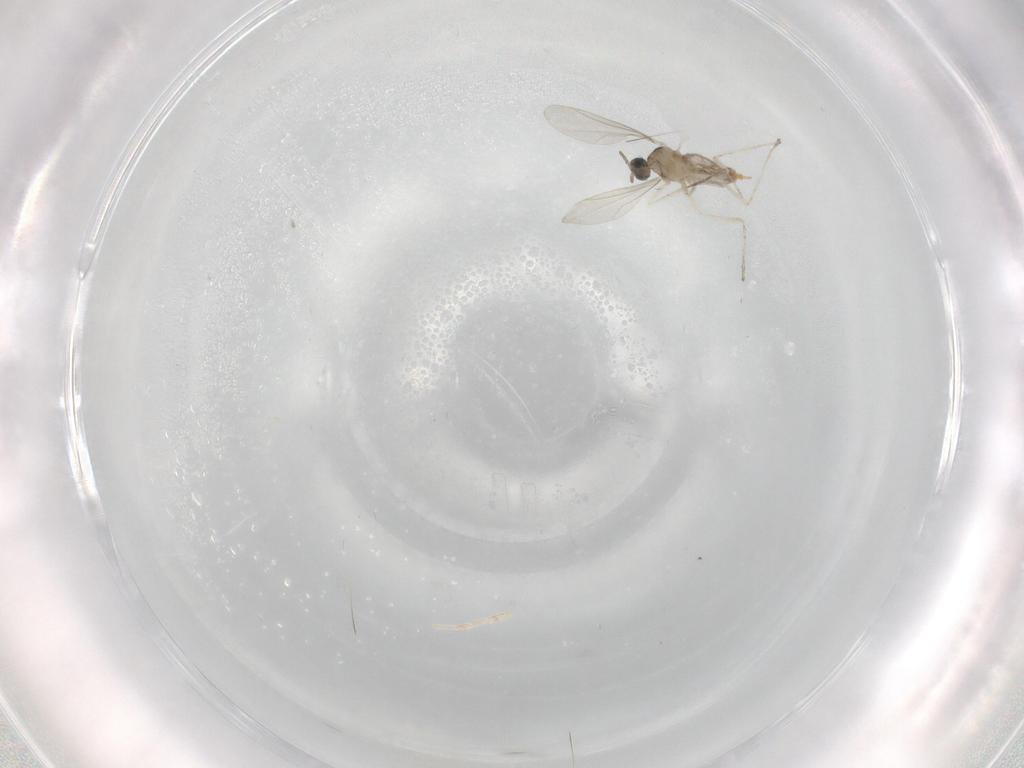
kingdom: Animalia
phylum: Arthropoda
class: Insecta
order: Diptera
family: Cecidomyiidae
